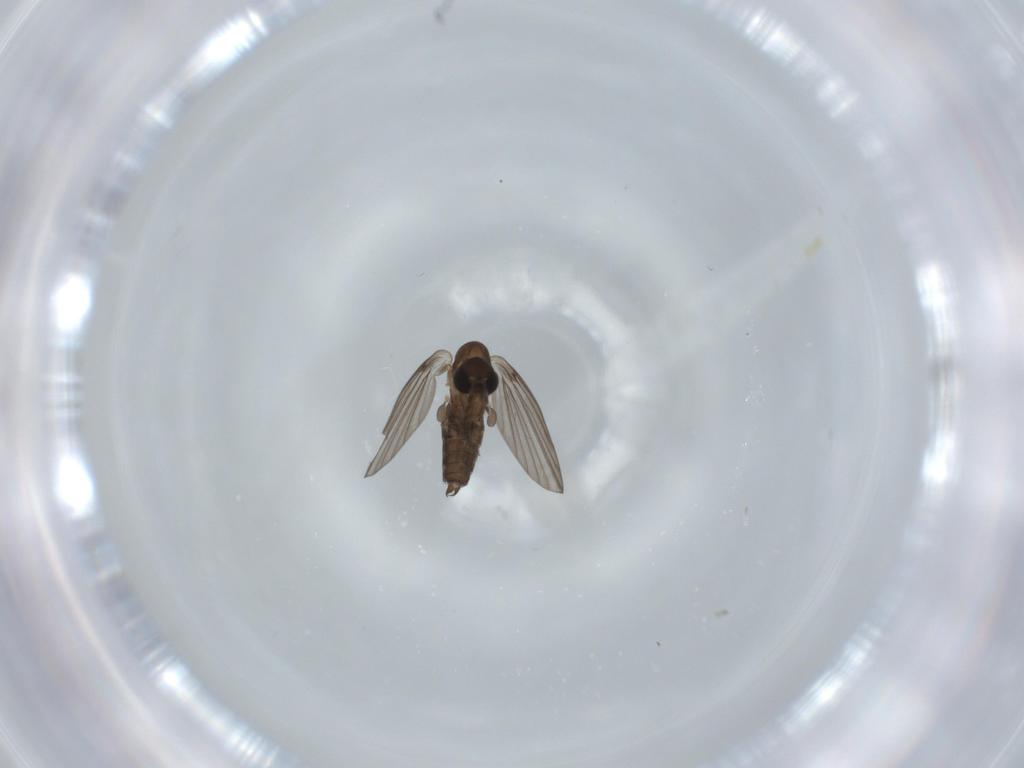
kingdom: Animalia
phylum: Arthropoda
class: Insecta
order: Diptera
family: Psychodidae
